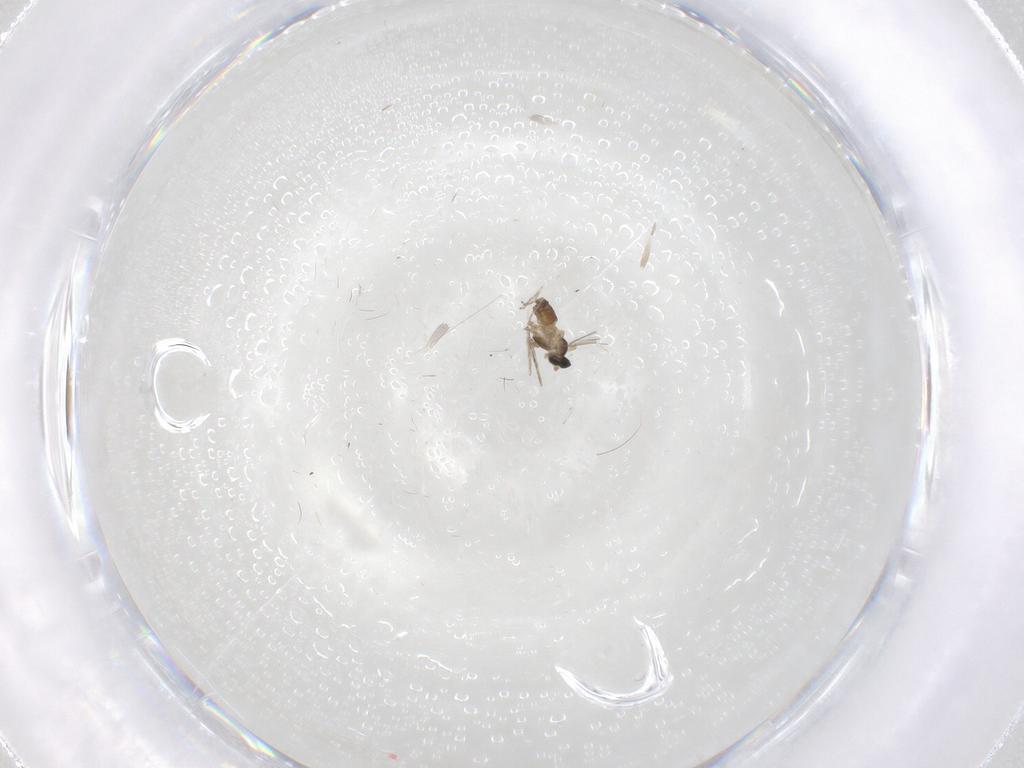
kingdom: Animalia
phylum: Arthropoda
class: Insecta
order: Diptera
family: Cecidomyiidae
